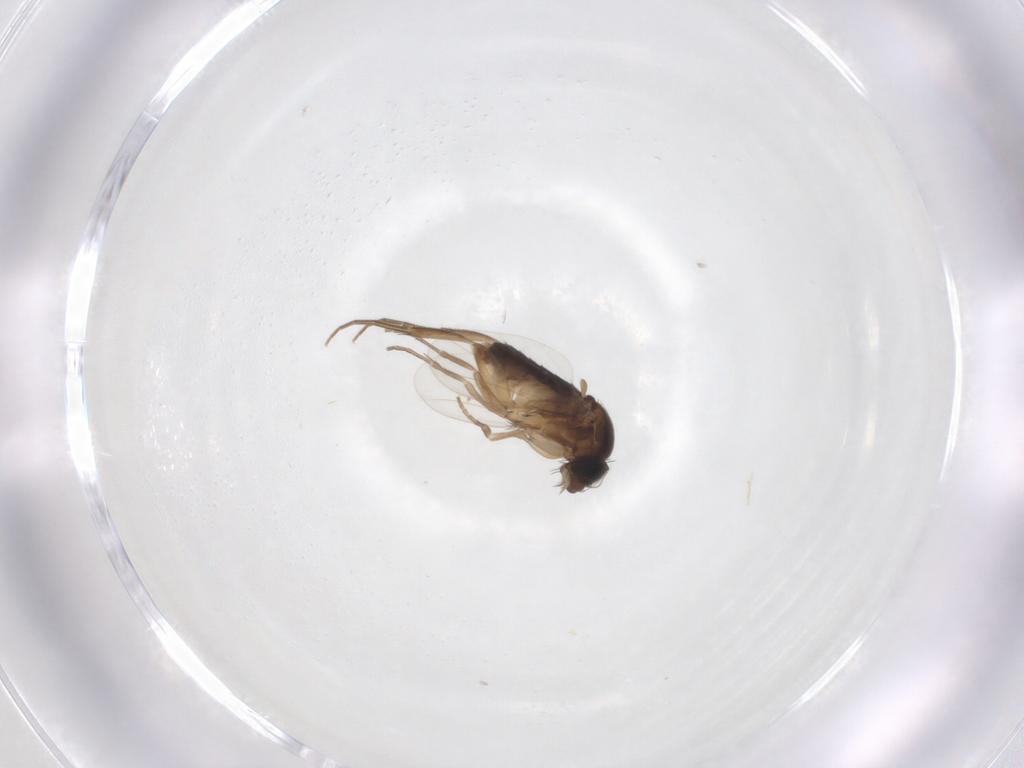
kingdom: Animalia
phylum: Arthropoda
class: Insecta
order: Diptera
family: Phoridae
